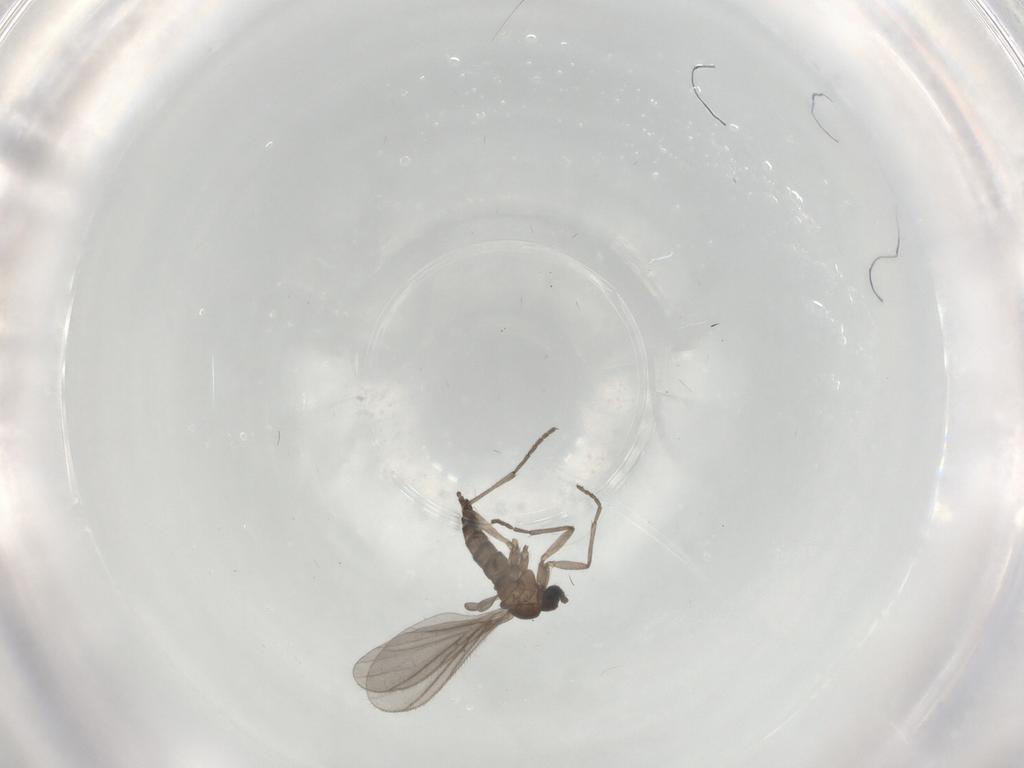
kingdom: Animalia
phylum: Arthropoda
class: Insecta
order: Diptera
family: Sciaridae
